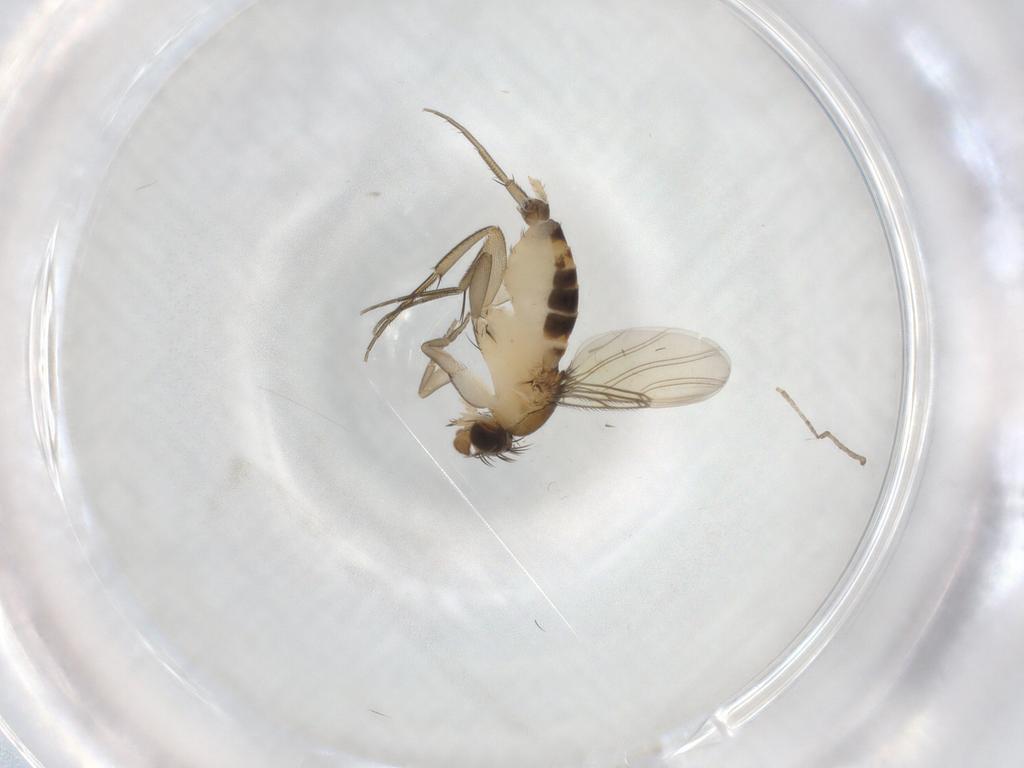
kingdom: Animalia
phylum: Arthropoda
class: Insecta
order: Diptera
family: Phoridae
